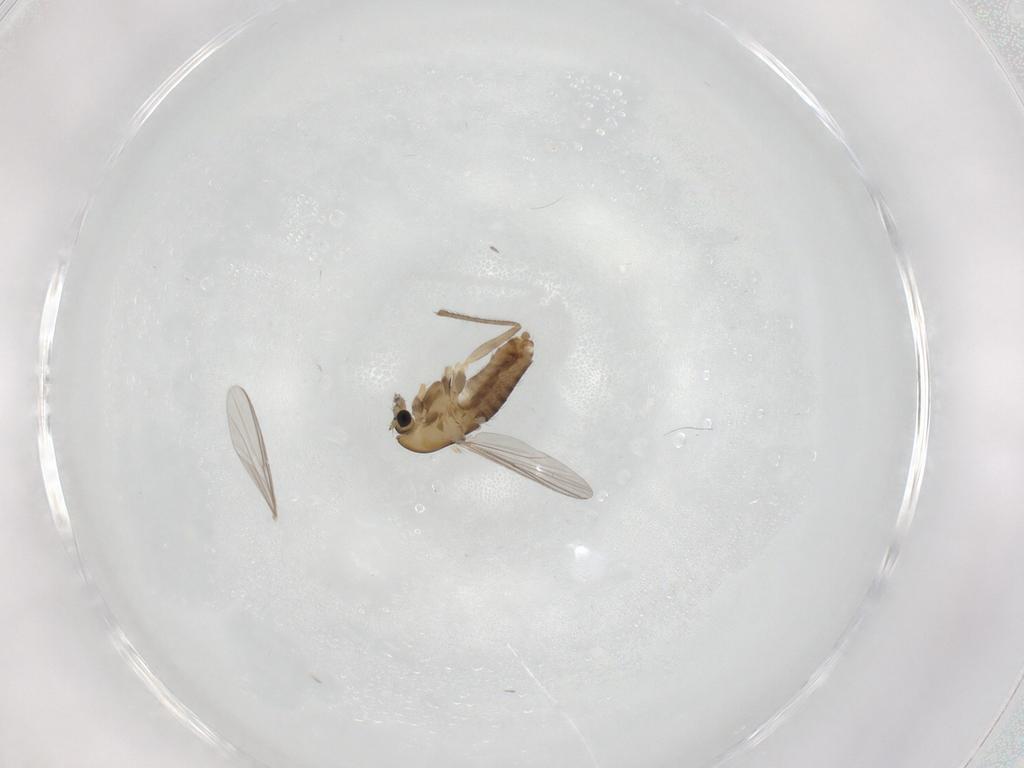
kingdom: Animalia
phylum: Arthropoda
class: Insecta
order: Diptera
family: Chironomidae
